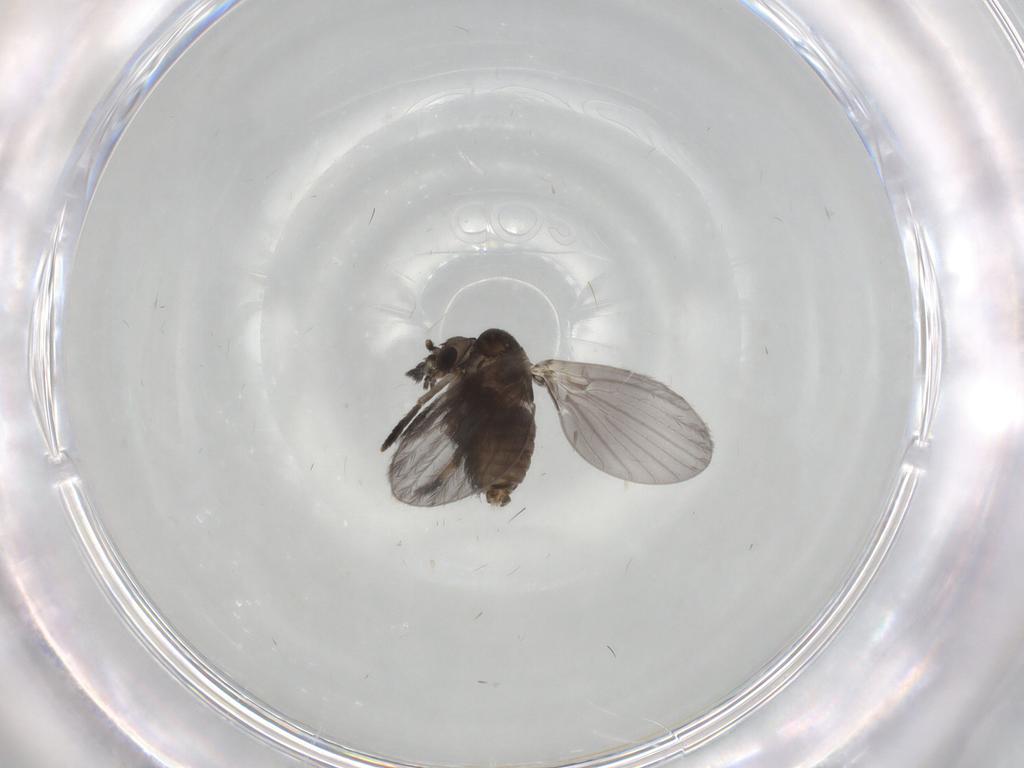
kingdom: Animalia
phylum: Arthropoda
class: Insecta
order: Diptera
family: Psychodidae
